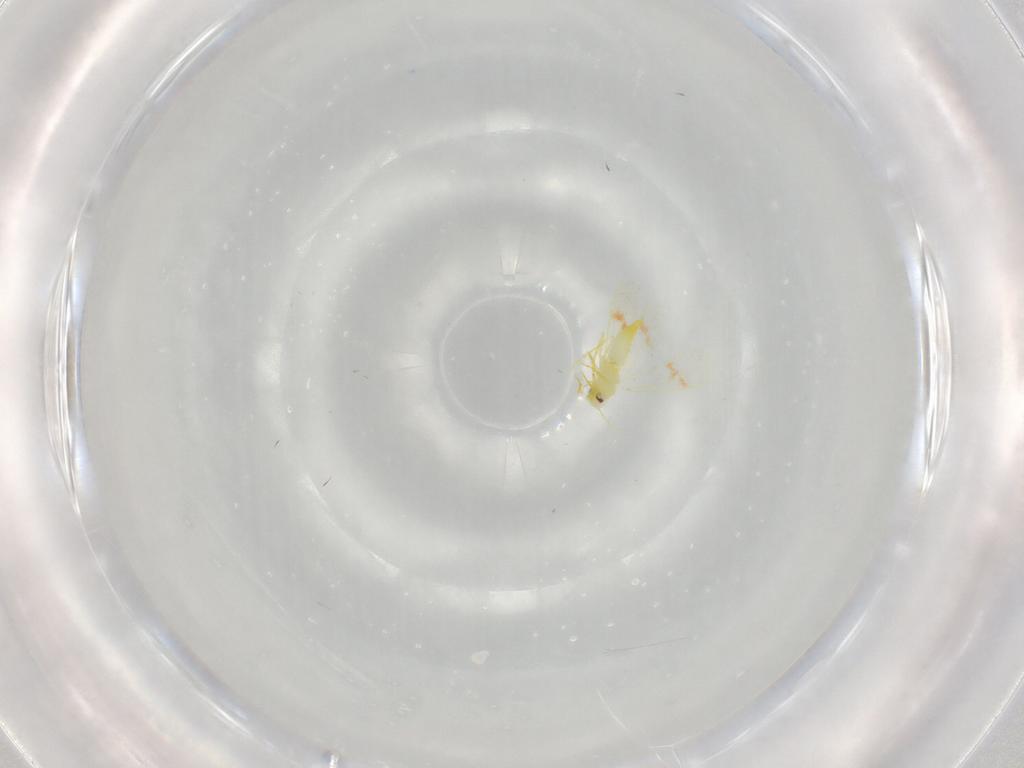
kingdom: Animalia
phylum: Arthropoda
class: Insecta
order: Hemiptera
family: Aleyrodidae
